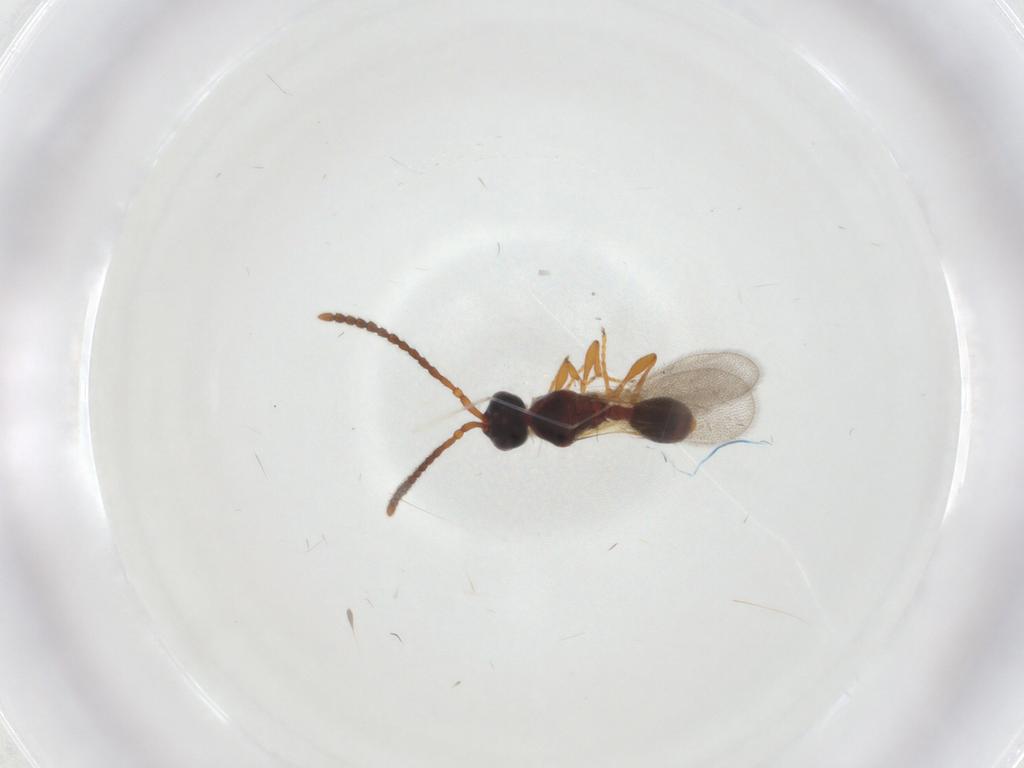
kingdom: Animalia
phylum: Arthropoda
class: Insecta
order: Hymenoptera
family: Diapriidae
